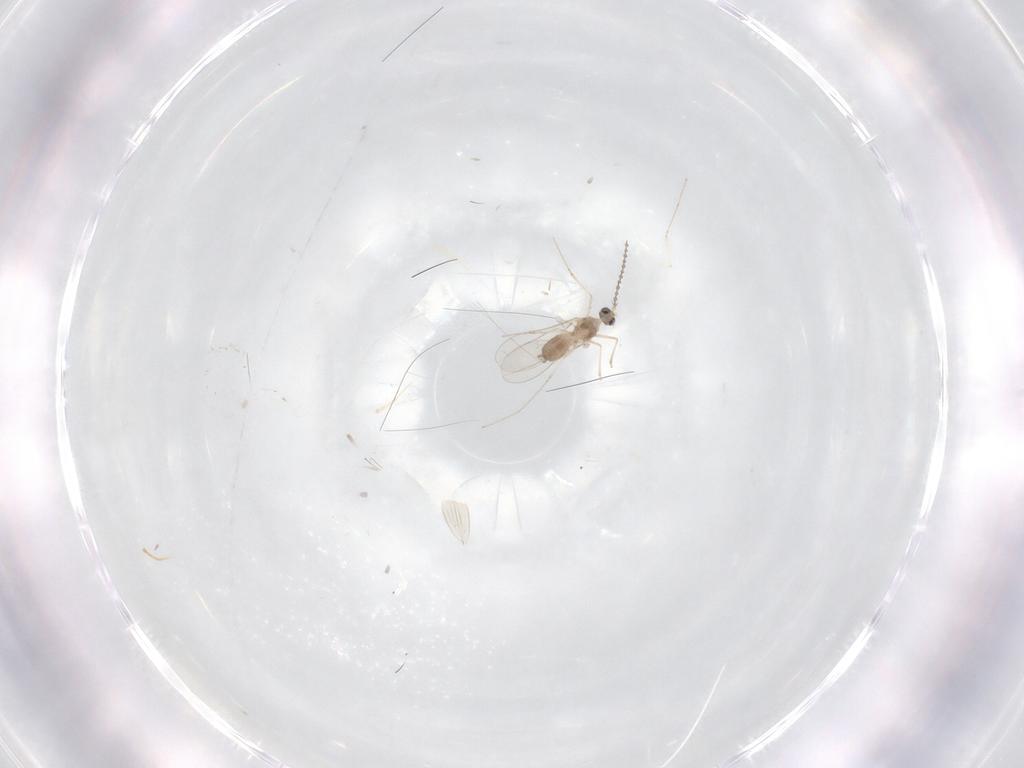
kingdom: Animalia
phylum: Arthropoda
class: Insecta
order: Diptera
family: Cecidomyiidae
